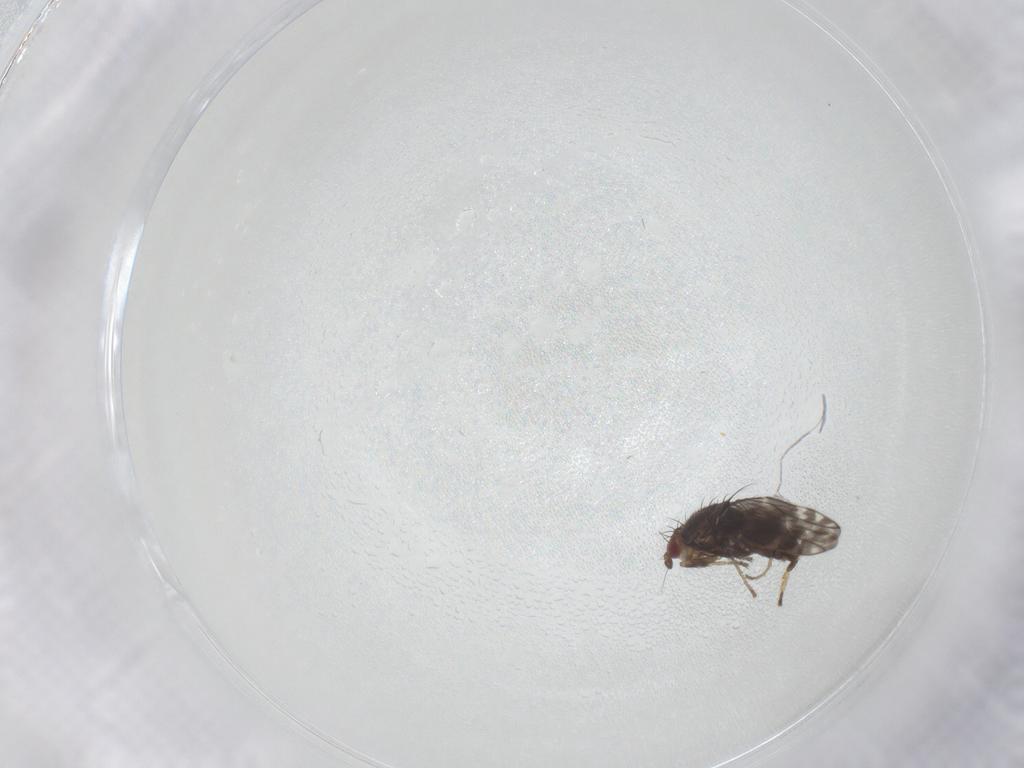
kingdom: Animalia
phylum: Arthropoda
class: Insecta
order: Diptera
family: Sphaeroceridae
